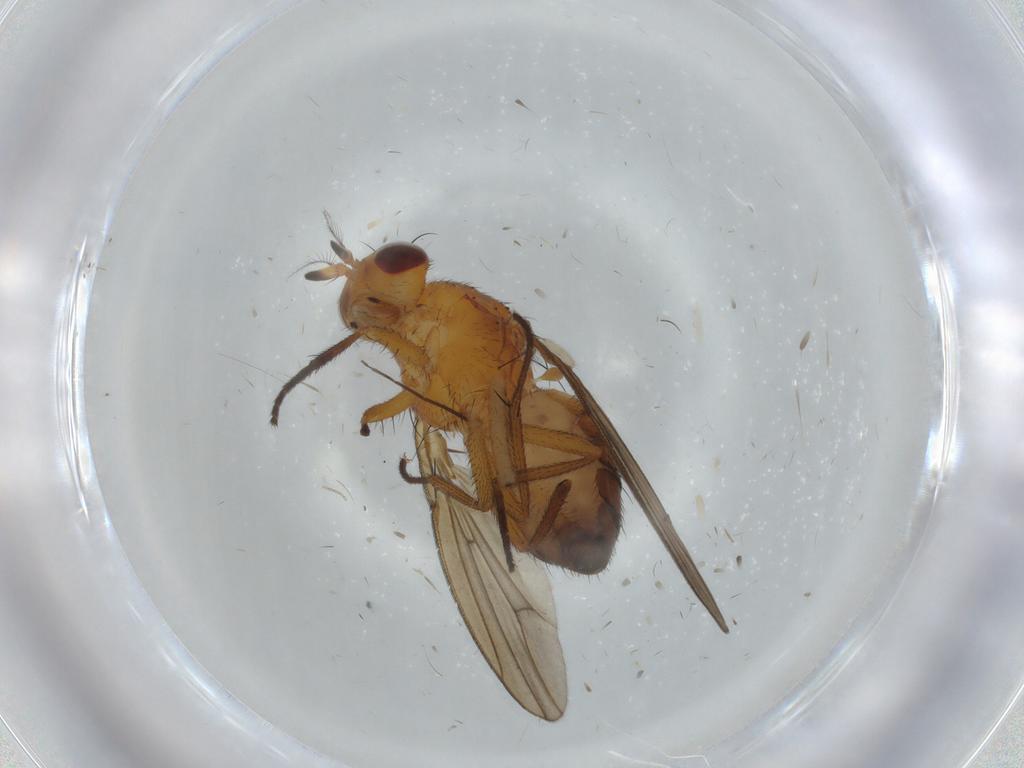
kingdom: Animalia
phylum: Arthropoda
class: Insecta
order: Diptera
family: Lauxaniidae
